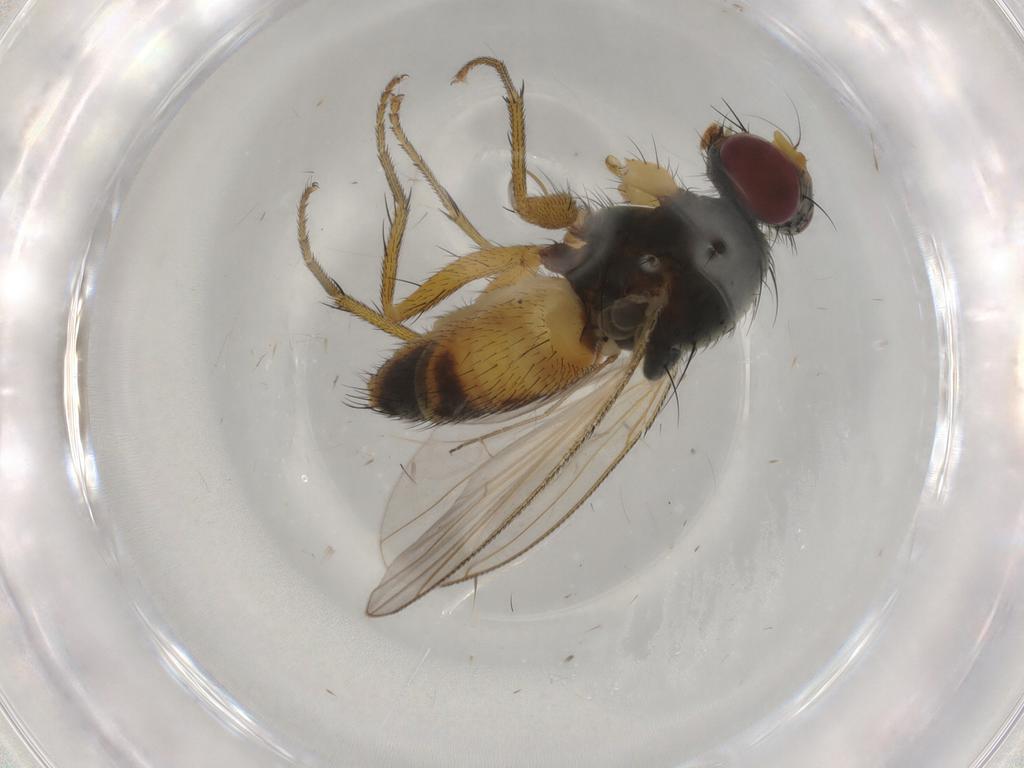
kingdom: Animalia
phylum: Arthropoda
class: Insecta
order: Diptera
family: Muscidae
